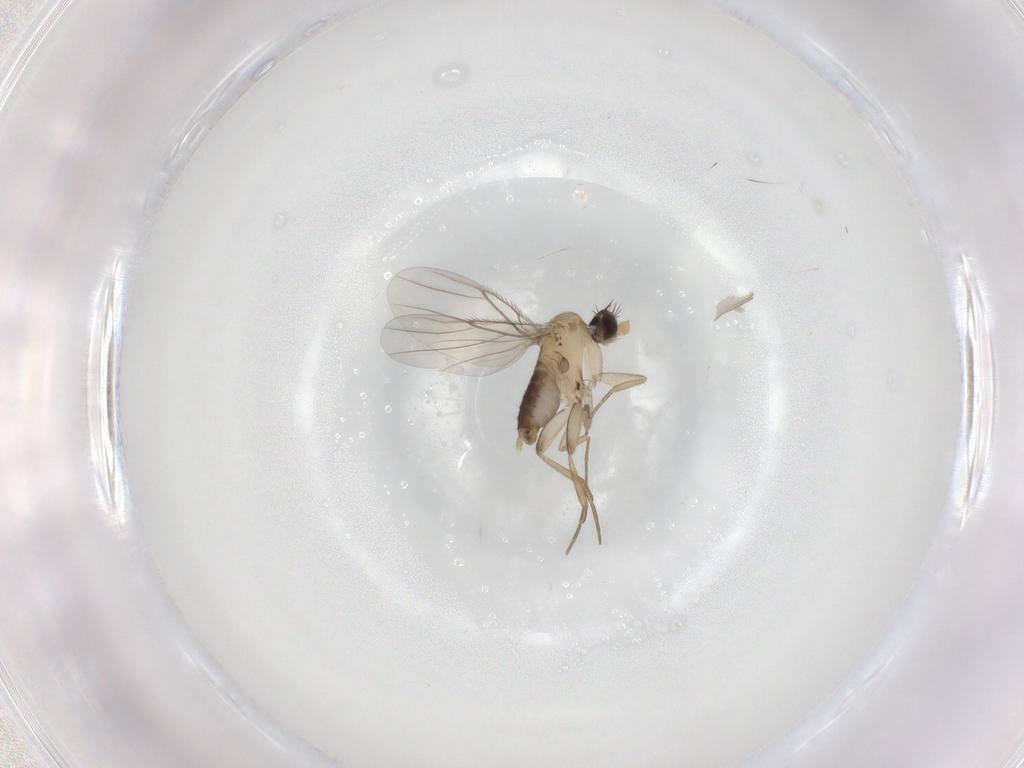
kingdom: Animalia
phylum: Arthropoda
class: Insecta
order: Diptera
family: Phoridae
